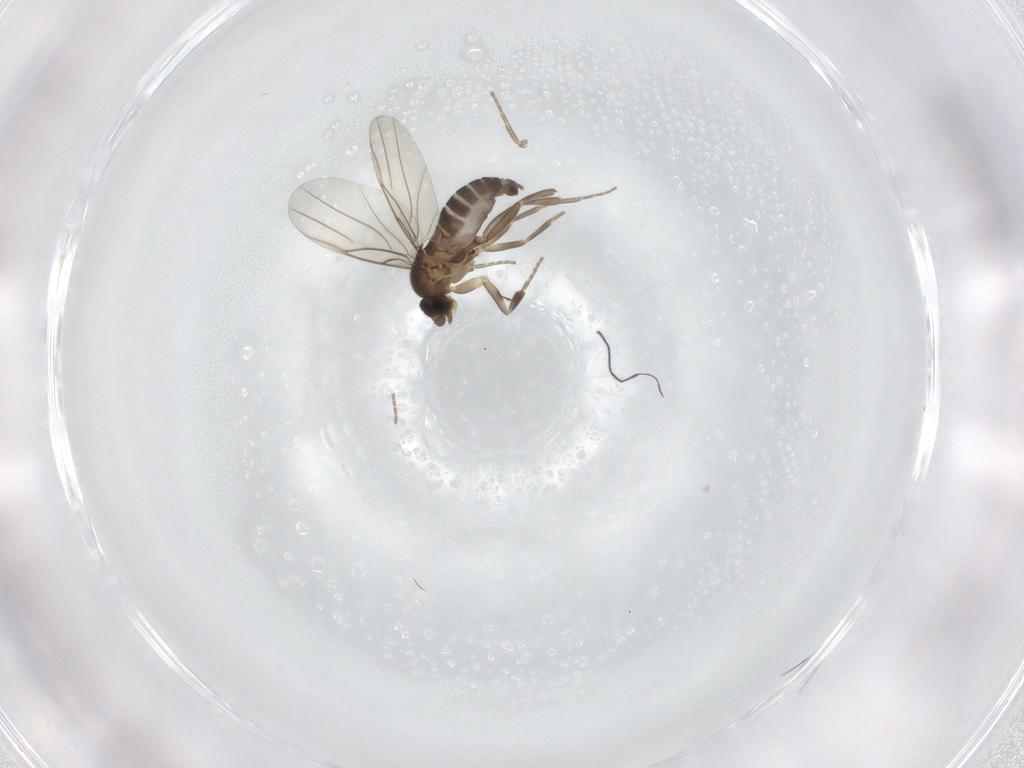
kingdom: Animalia
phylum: Arthropoda
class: Insecta
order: Diptera
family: Phoridae
